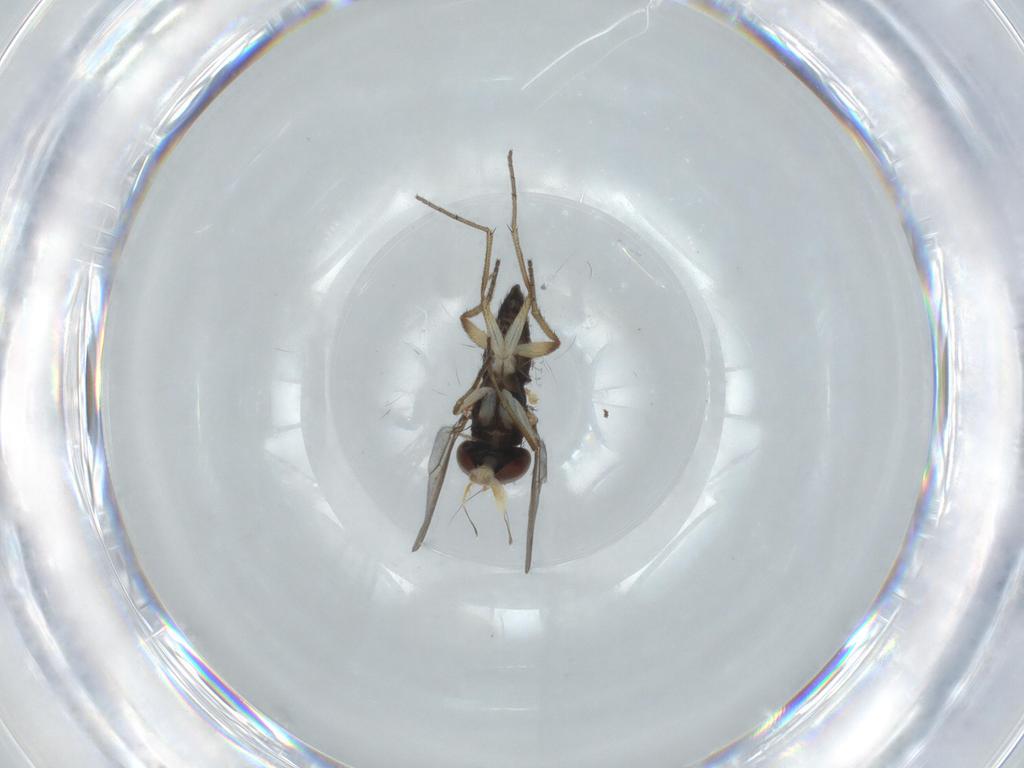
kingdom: Animalia
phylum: Arthropoda
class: Insecta
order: Diptera
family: Dolichopodidae
